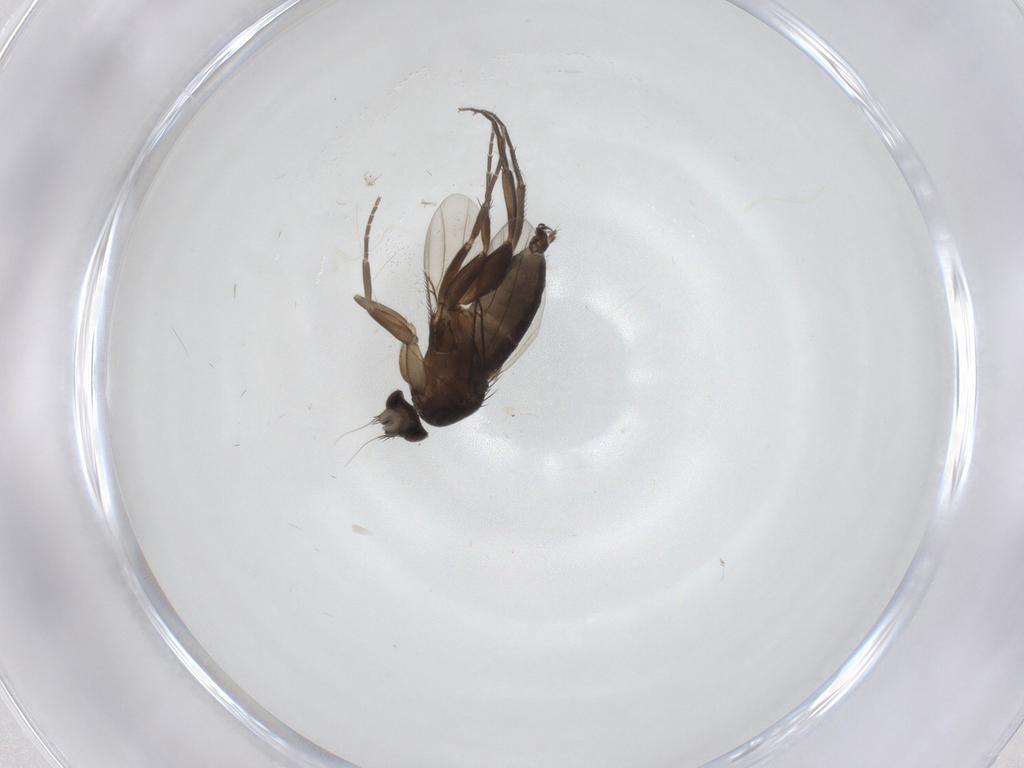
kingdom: Animalia
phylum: Arthropoda
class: Insecta
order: Diptera
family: Phoridae
